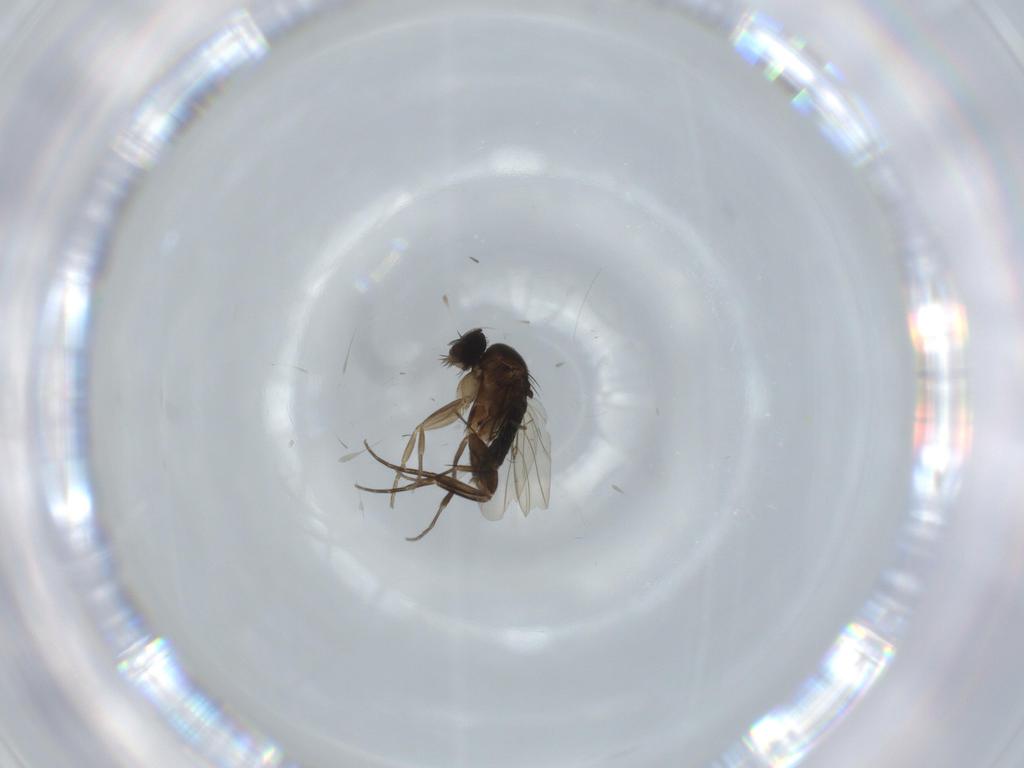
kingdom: Animalia
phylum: Arthropoda
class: Insecta
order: Diptera
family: Phoridae
